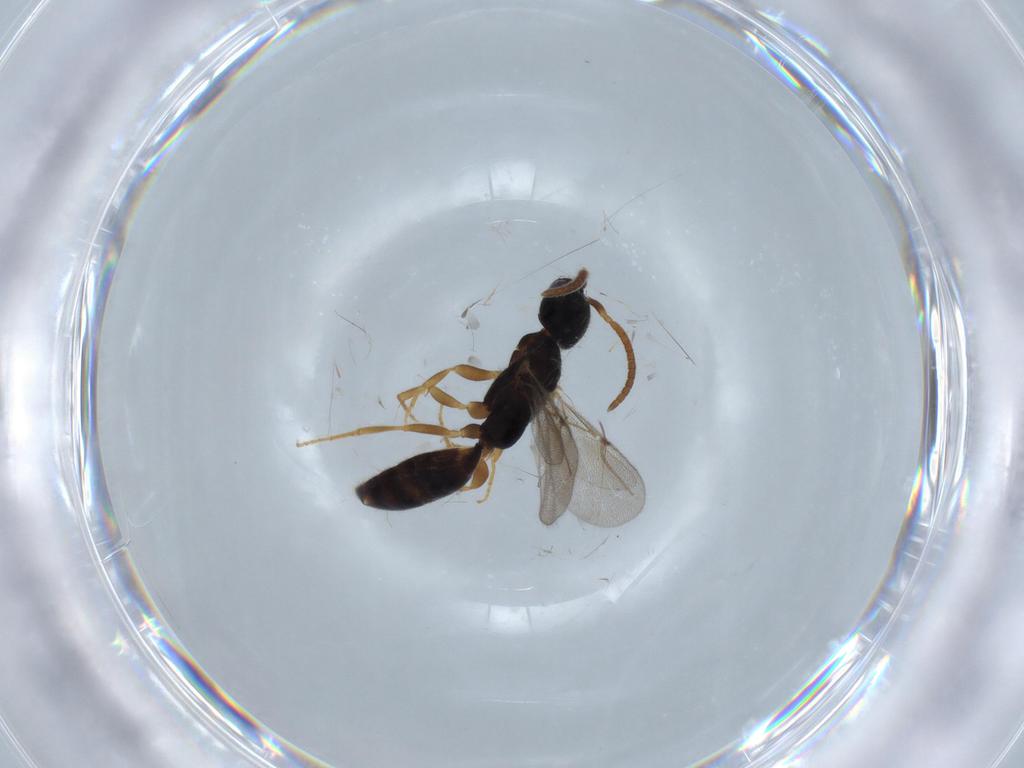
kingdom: Animalia
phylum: Arthropoda
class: Insecta
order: Hymenoptera
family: Bethylidae
